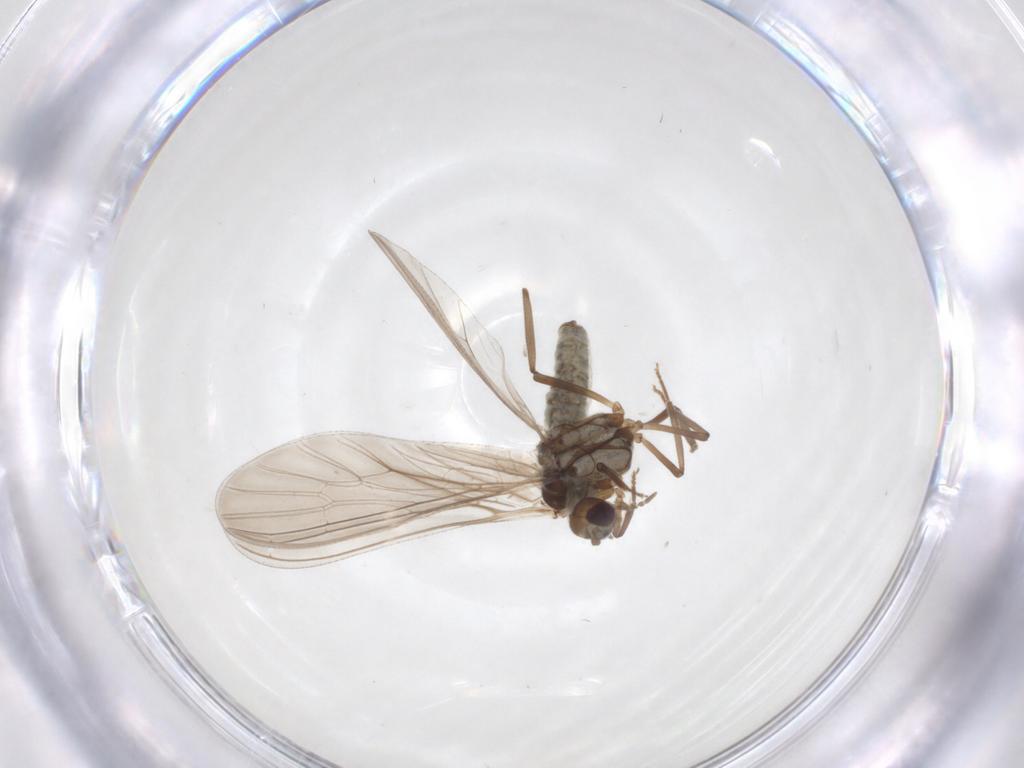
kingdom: Animalia
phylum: Arthropoda
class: Insecta
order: Neuroptera
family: Coniopterygidae
